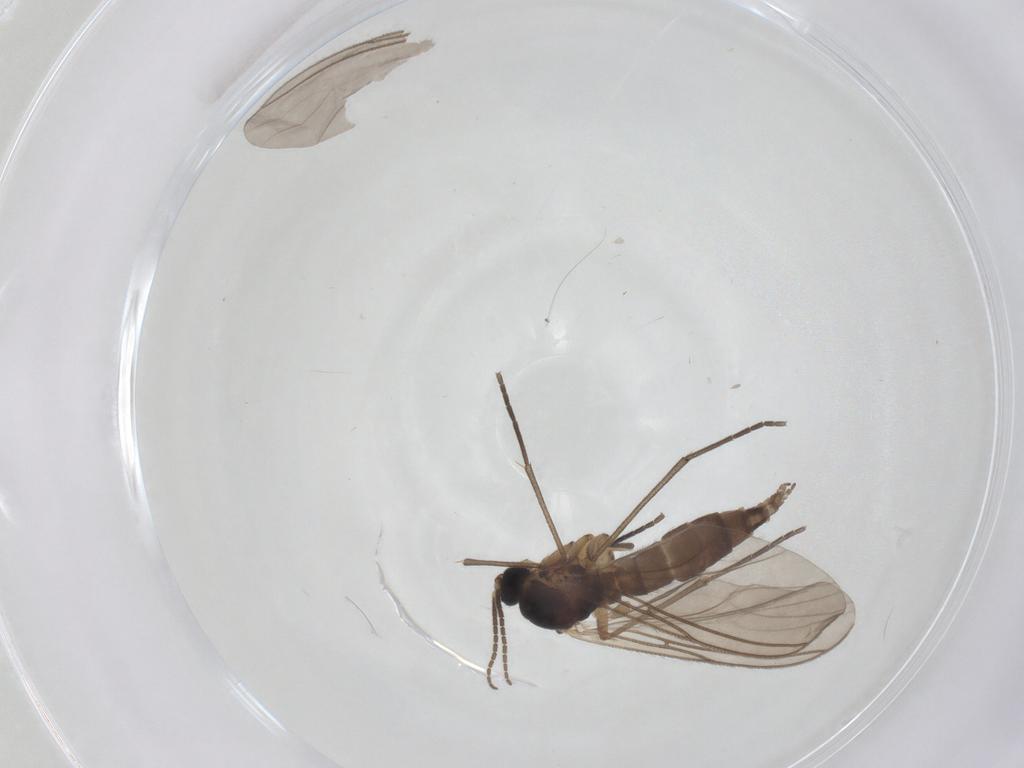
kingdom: Animalia
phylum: Arthropoda
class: Insecta
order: Diptera
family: Sciaridae
